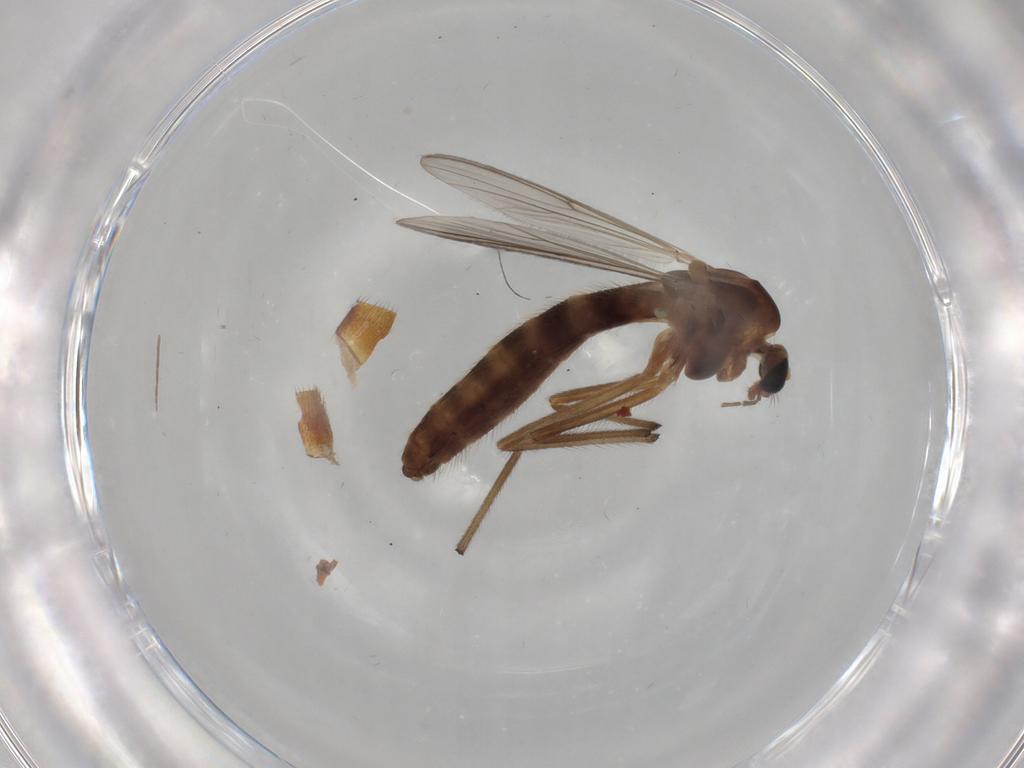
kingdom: Animalia
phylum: Arthropoda
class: Insecta
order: Diptera
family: Chironomidae
